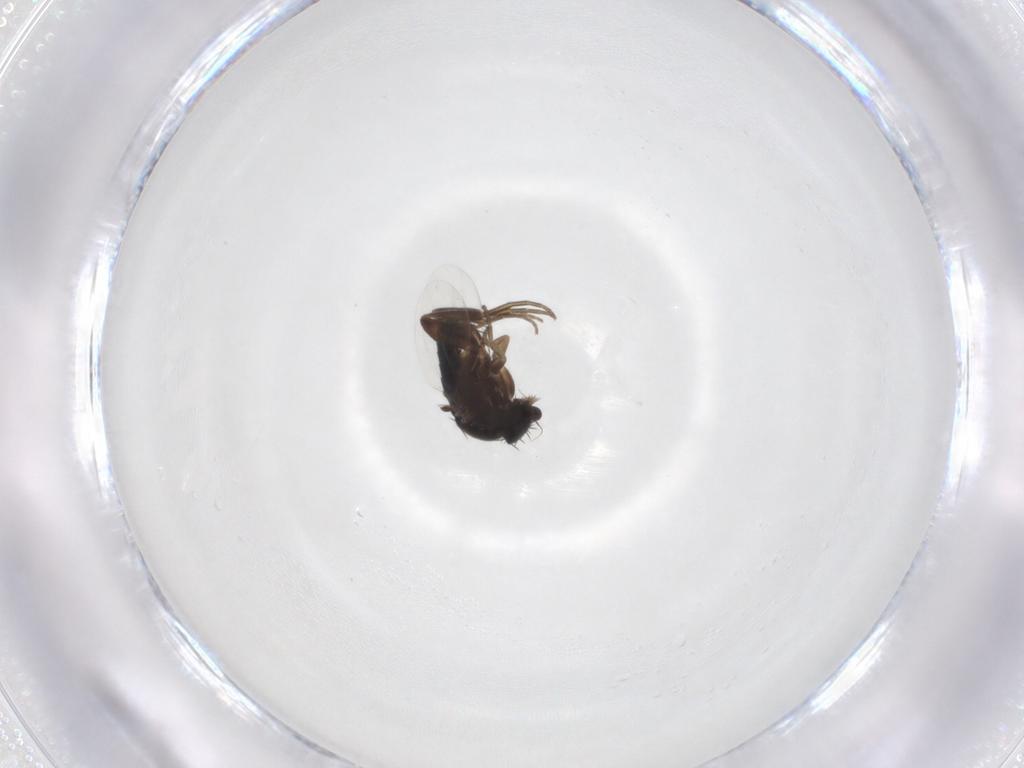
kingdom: Animalia
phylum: Arthropoda
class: Insecta
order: Diptera
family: Phoridae
